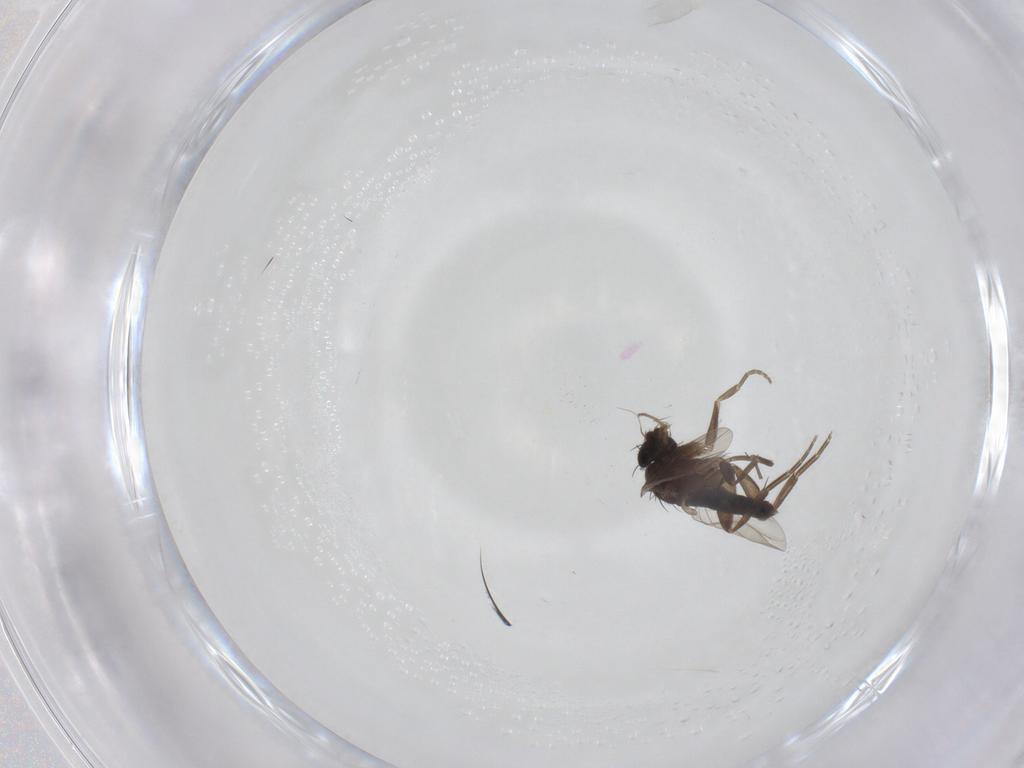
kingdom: Animalia
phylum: Arthropoda
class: Insecta
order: Diptera
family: Phoridae
